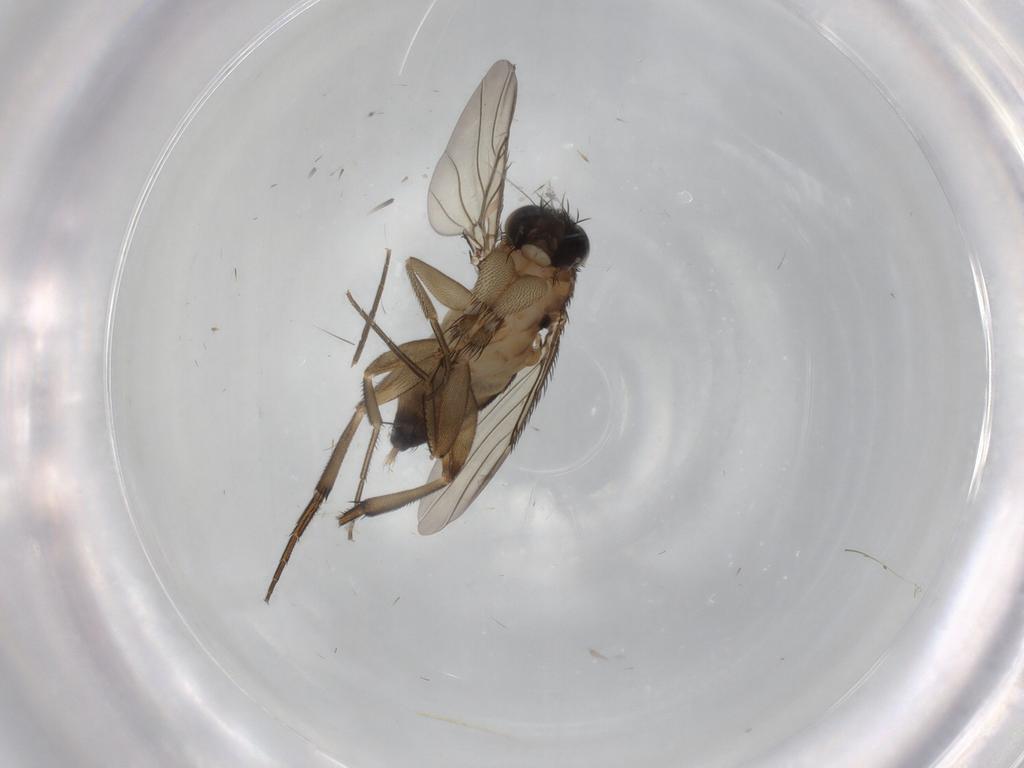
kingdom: Animalia
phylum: Arthropoda
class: Insecta
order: Diptera
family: Phoridae
